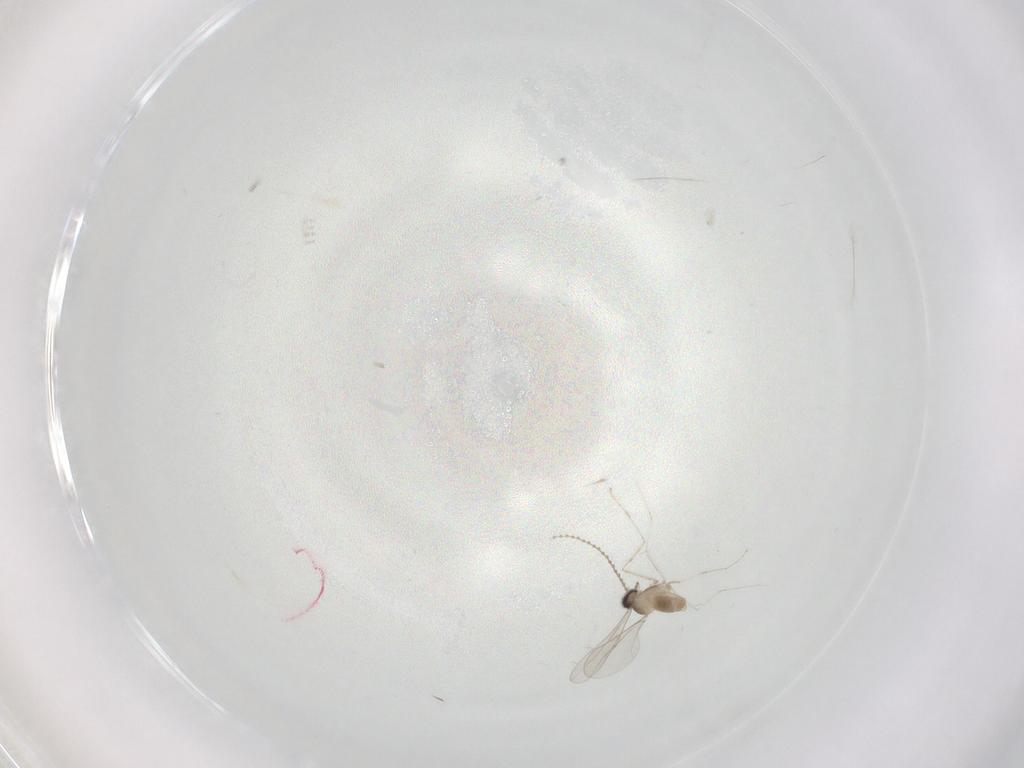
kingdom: Animalia
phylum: Arthropoda
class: Insecta
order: Diptera
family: Cecidomyiidae
